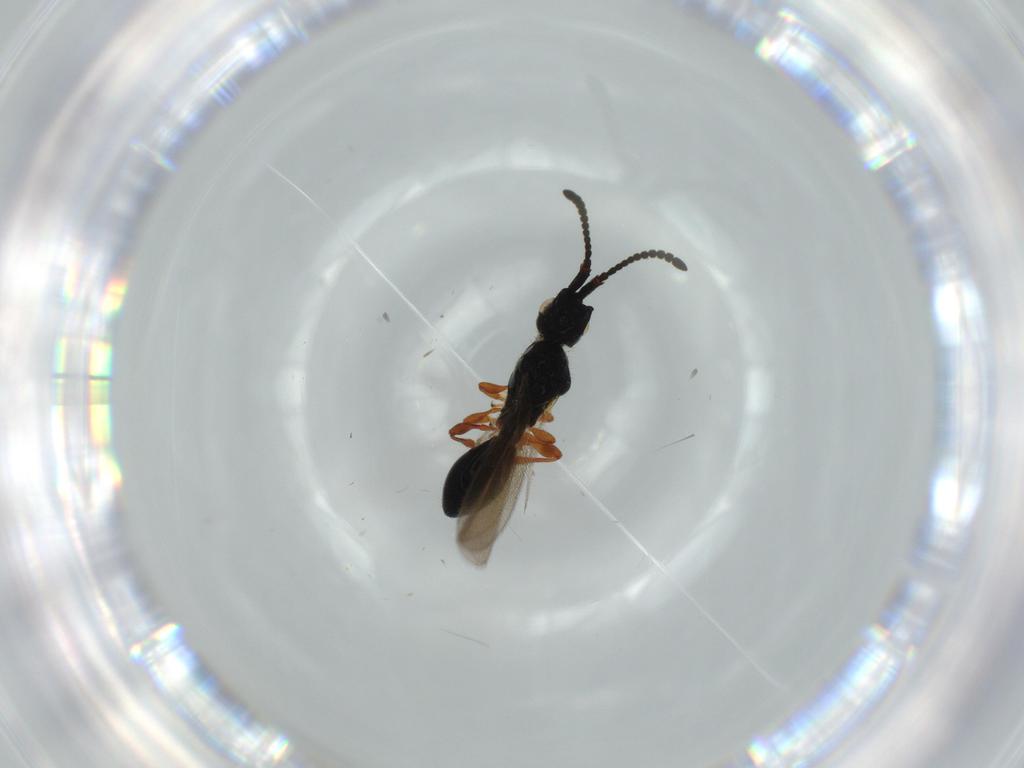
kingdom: Animalia
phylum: Arthropoda
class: Insecta
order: Hymenoptera
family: Diapriidae
